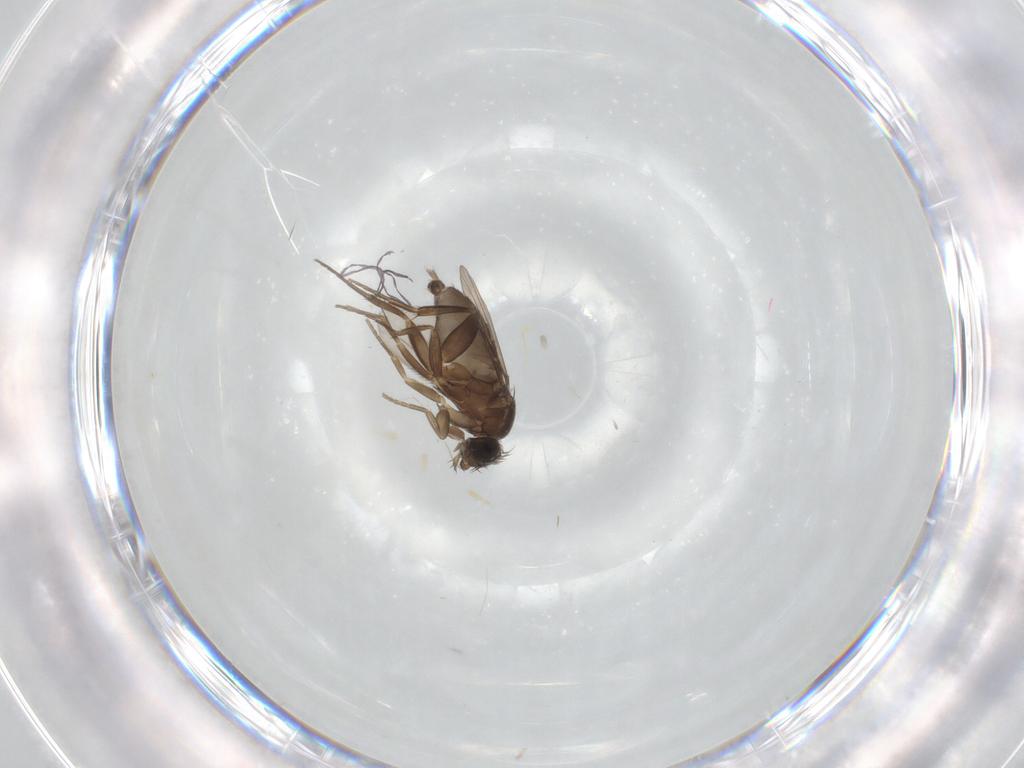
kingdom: Animalia
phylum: Arthropoda
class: Insecta
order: Diptera
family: Phoridae
